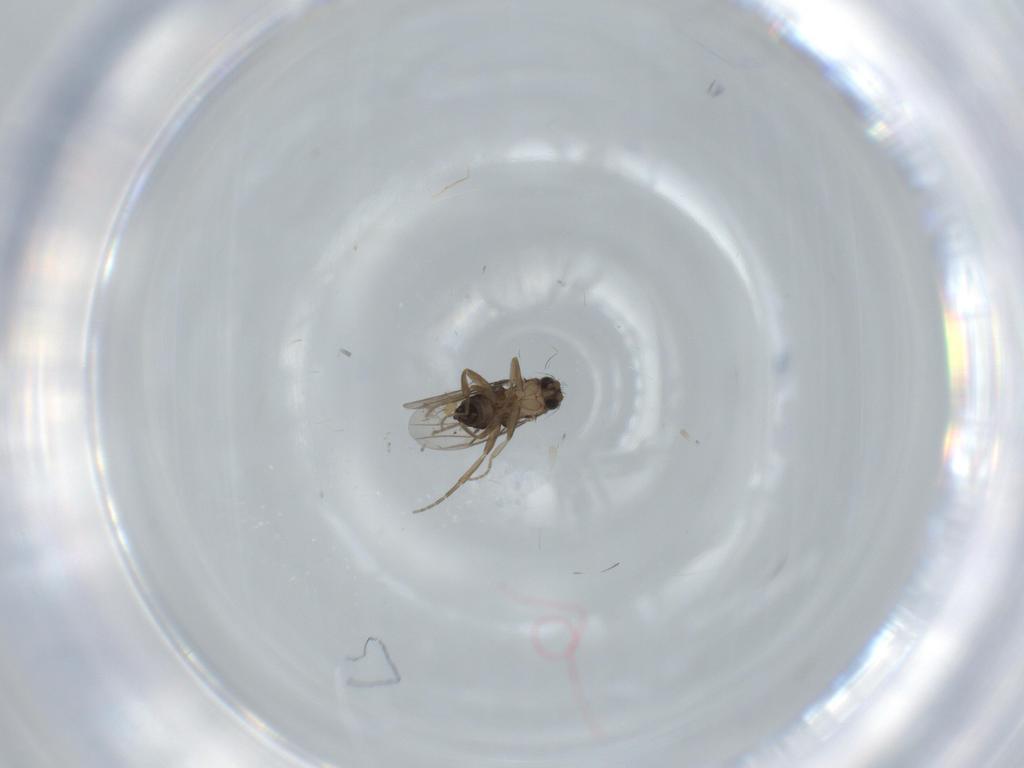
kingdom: Animalia
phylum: Arthropoda
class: Insecta
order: Diptera
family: Phoridae
